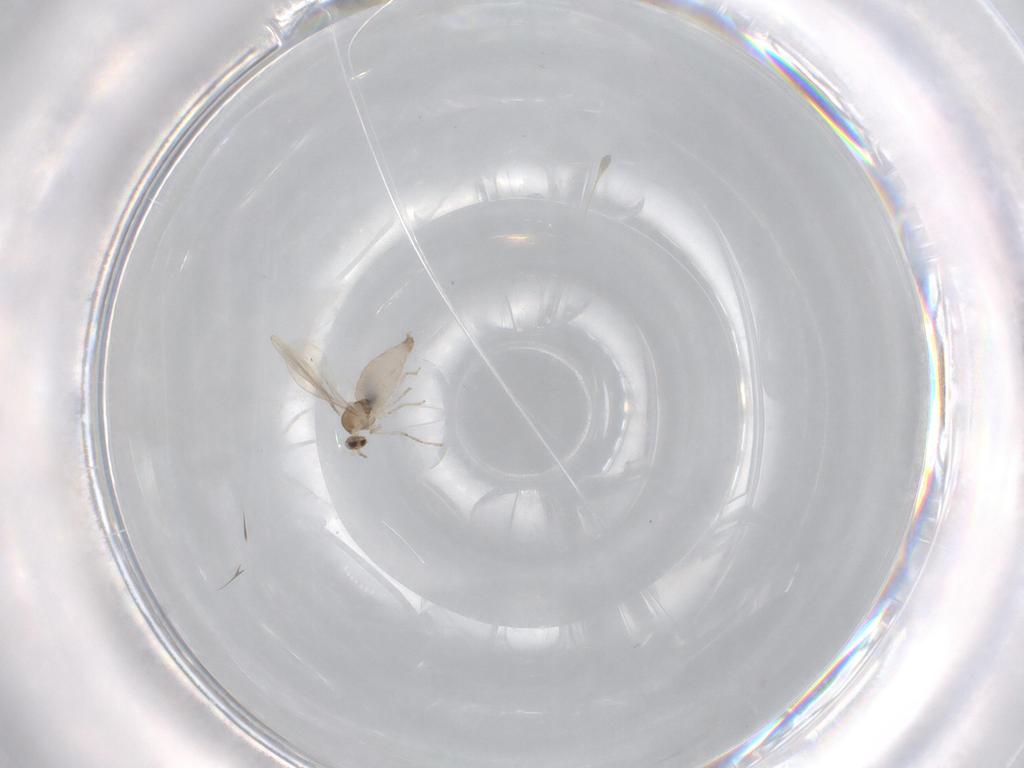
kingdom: Animalia
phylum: Arthropoda
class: Insecta
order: Diptera
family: Cecidomyiidae
